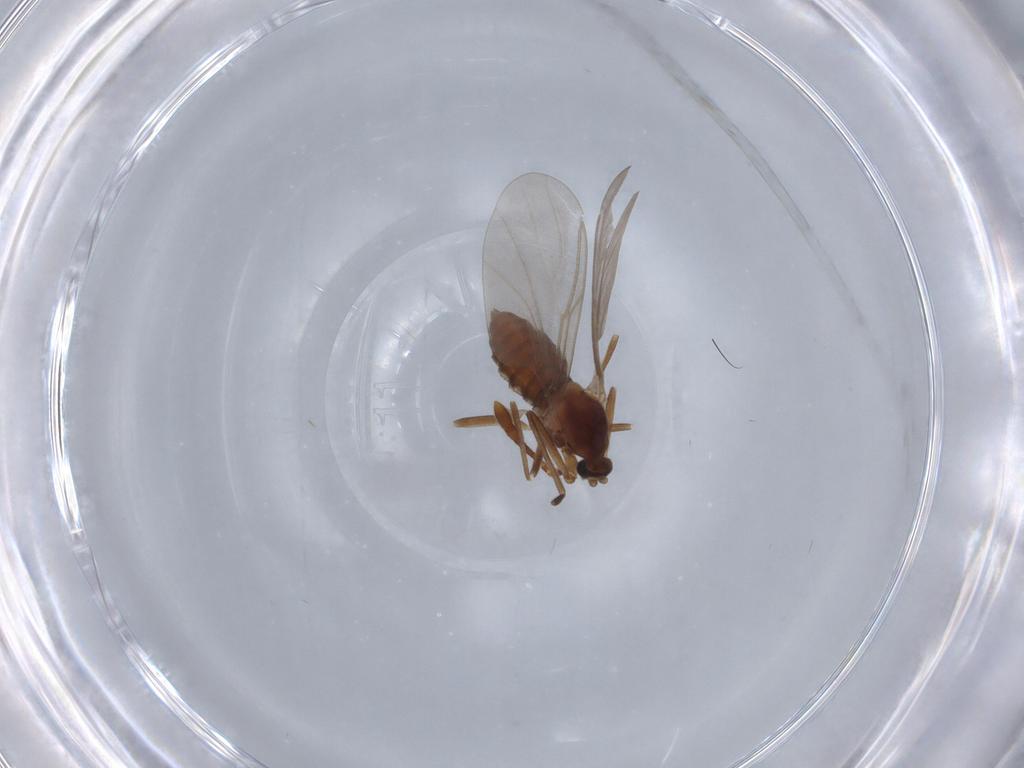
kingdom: Animalia
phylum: Arthropoda
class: Insecta
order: Diptera
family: Cecidomyiidae
